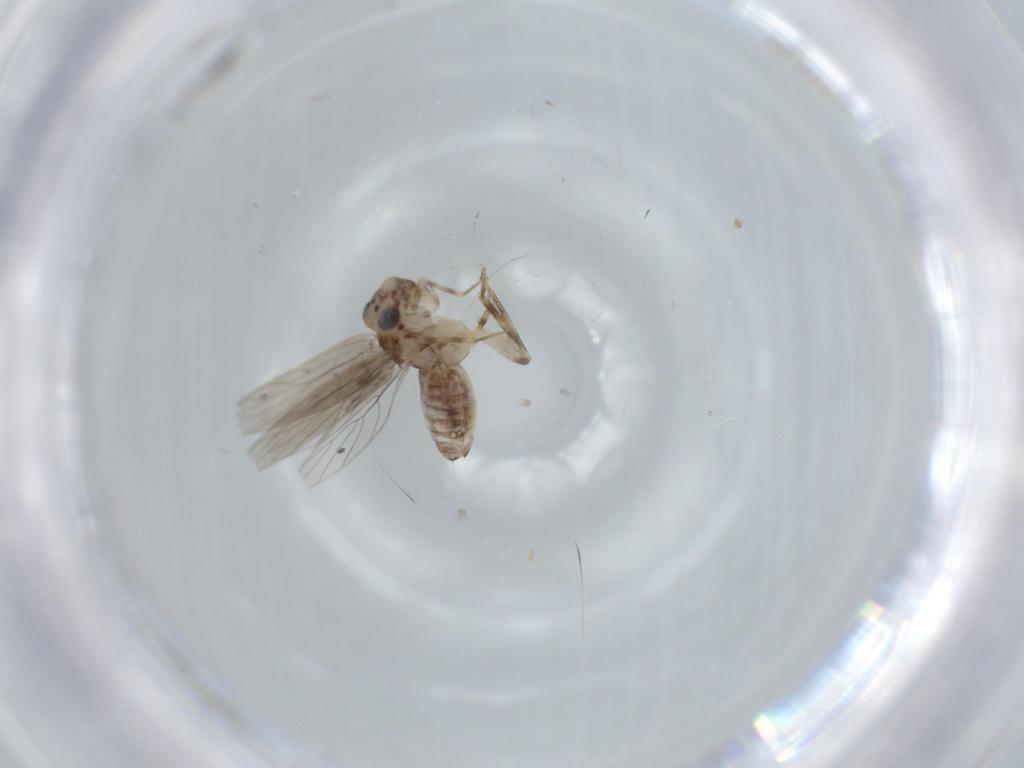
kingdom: Animalia
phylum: Arthropoda
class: Insecta
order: Psocodea
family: Lepidopsocidae
